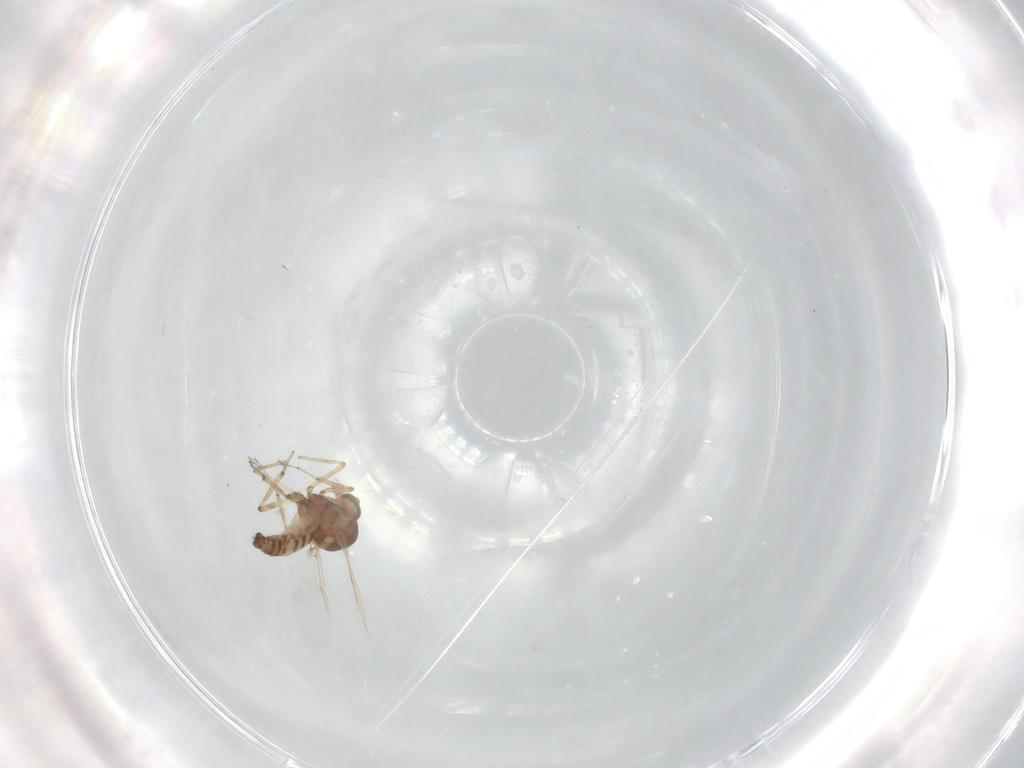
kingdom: Animalia
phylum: Arthropoda
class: Insecta
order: Diptera
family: Ceratopogonidae
